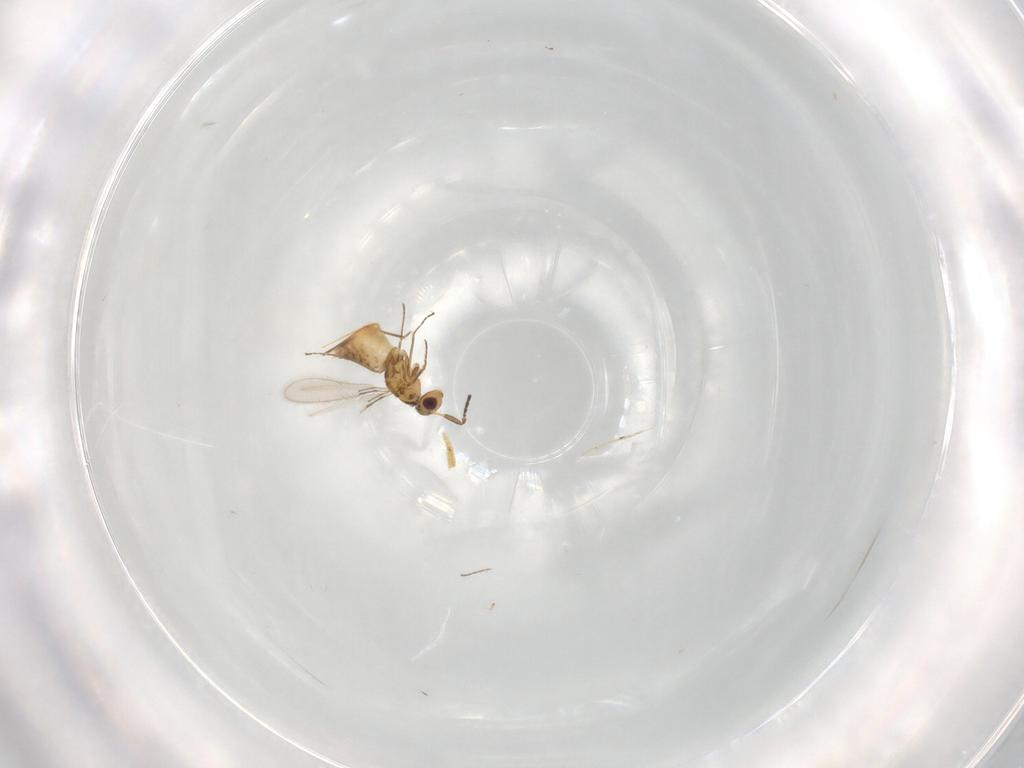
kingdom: Animalia
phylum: Arthropoda
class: Insecta
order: Hymenoptera
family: Mymaridae
